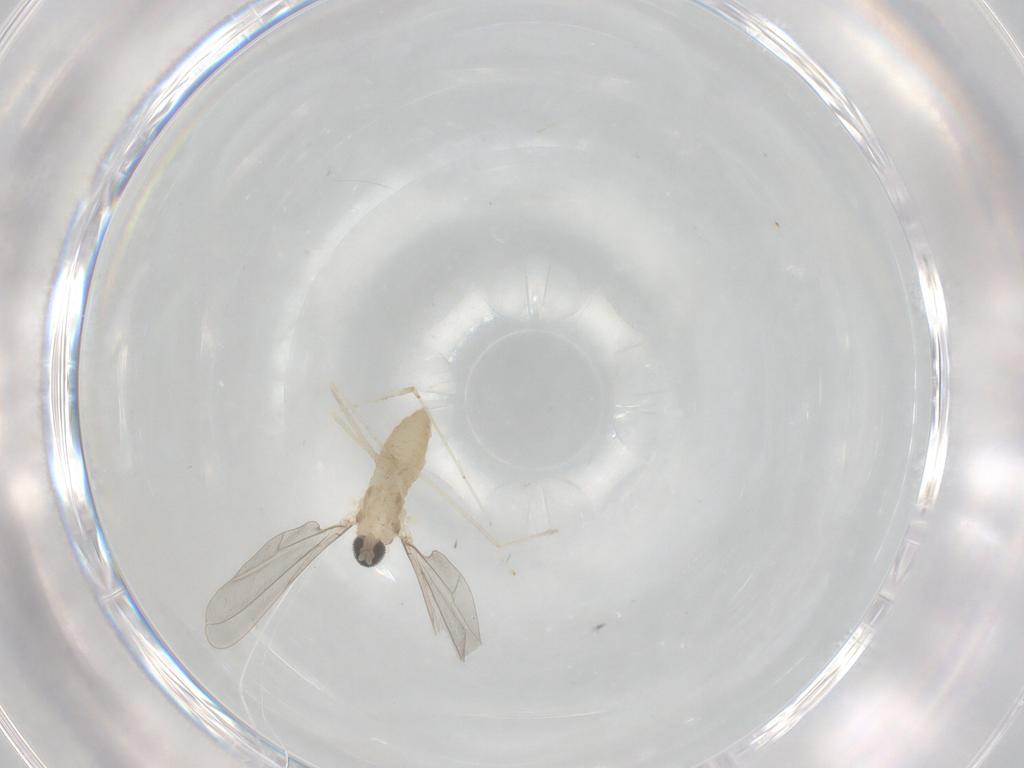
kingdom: Animalia
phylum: Arthropoda
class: Insecta
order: Diptera
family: Cecidomyiidae
